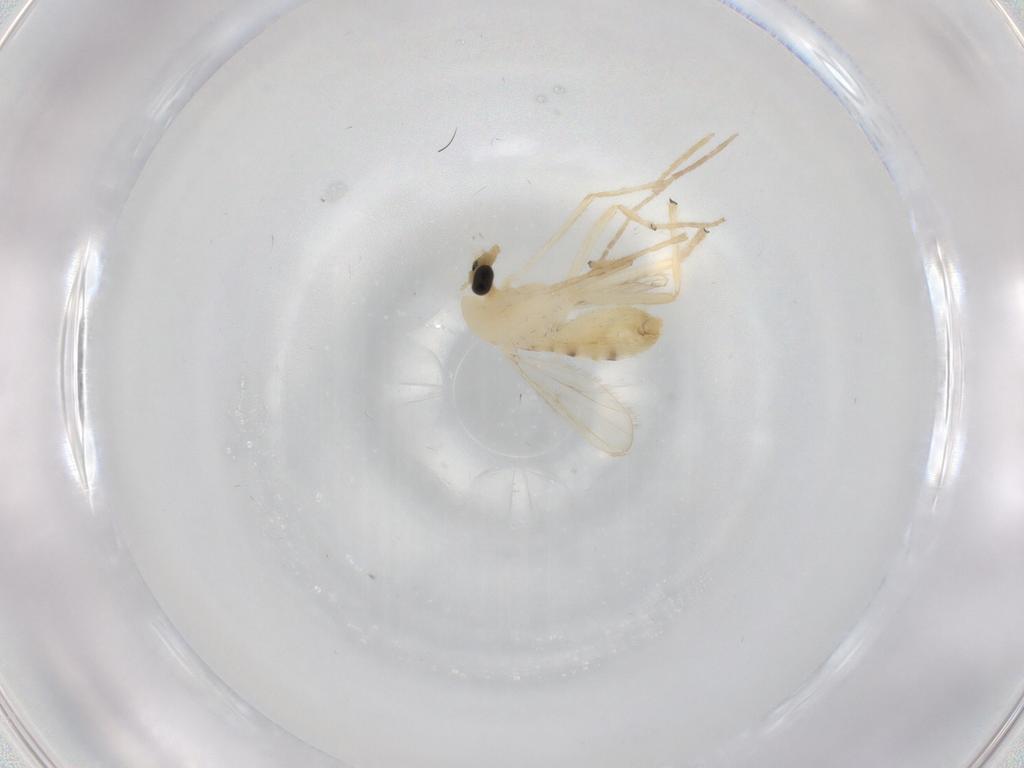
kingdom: Animalia
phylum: Arthropoda
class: Insecta
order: Diptera
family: Chironomidae
